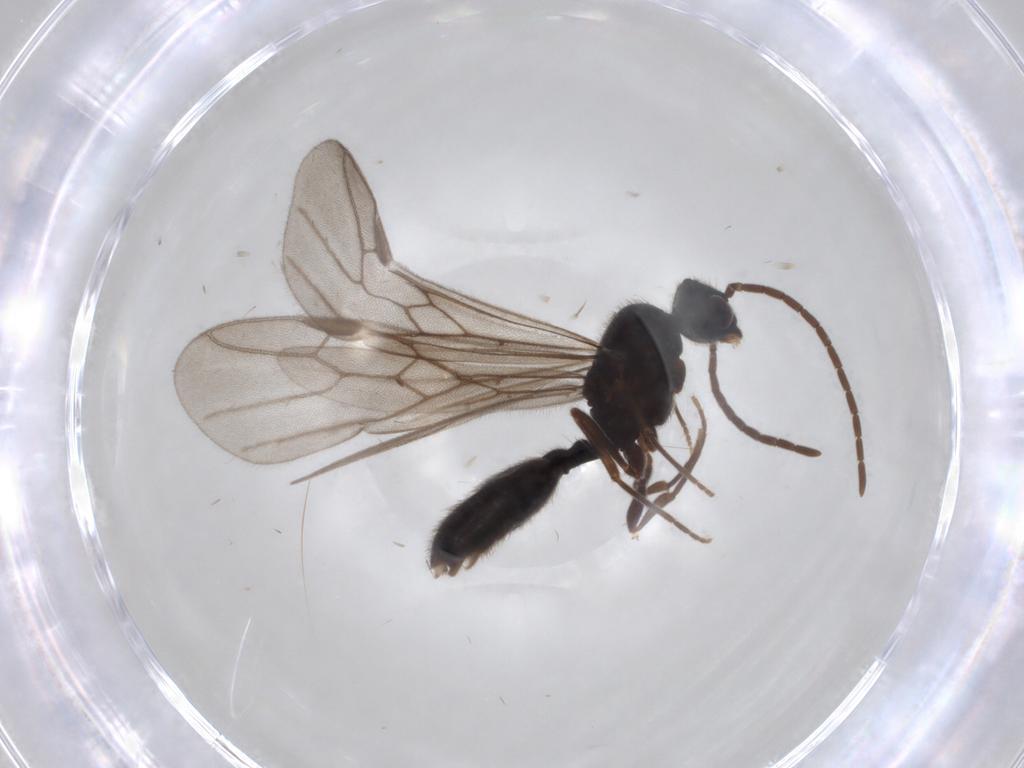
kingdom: Animalia
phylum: Arthropoda
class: Insecta
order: Hymenoptera
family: Formicidae
